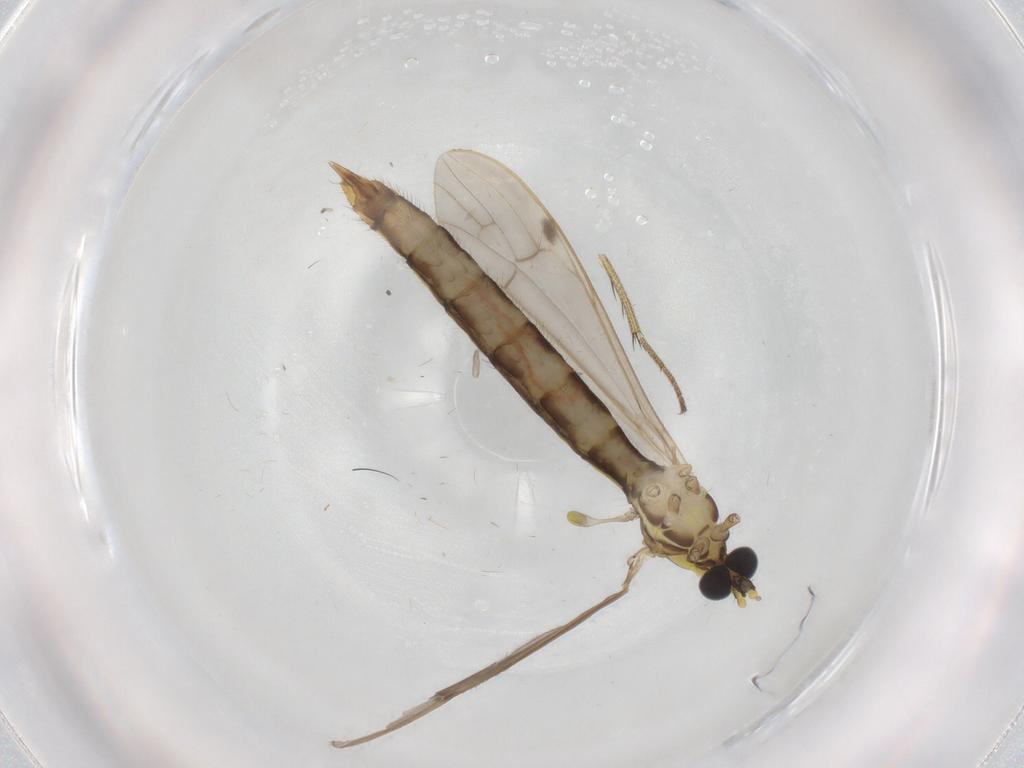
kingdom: Animalia
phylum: Arthropoda
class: Insecta
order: Diptera
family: Limoniidae
